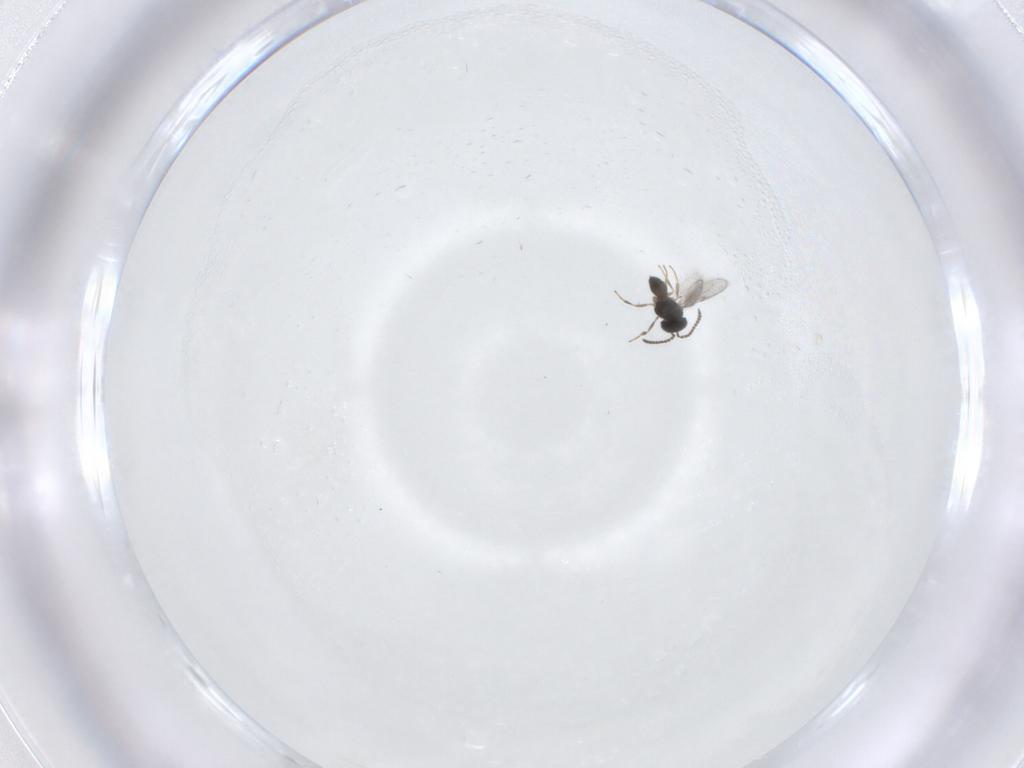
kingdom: Animalia
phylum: Arthropoda
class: Insecta
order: Hymenoptera
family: Scelionidae
